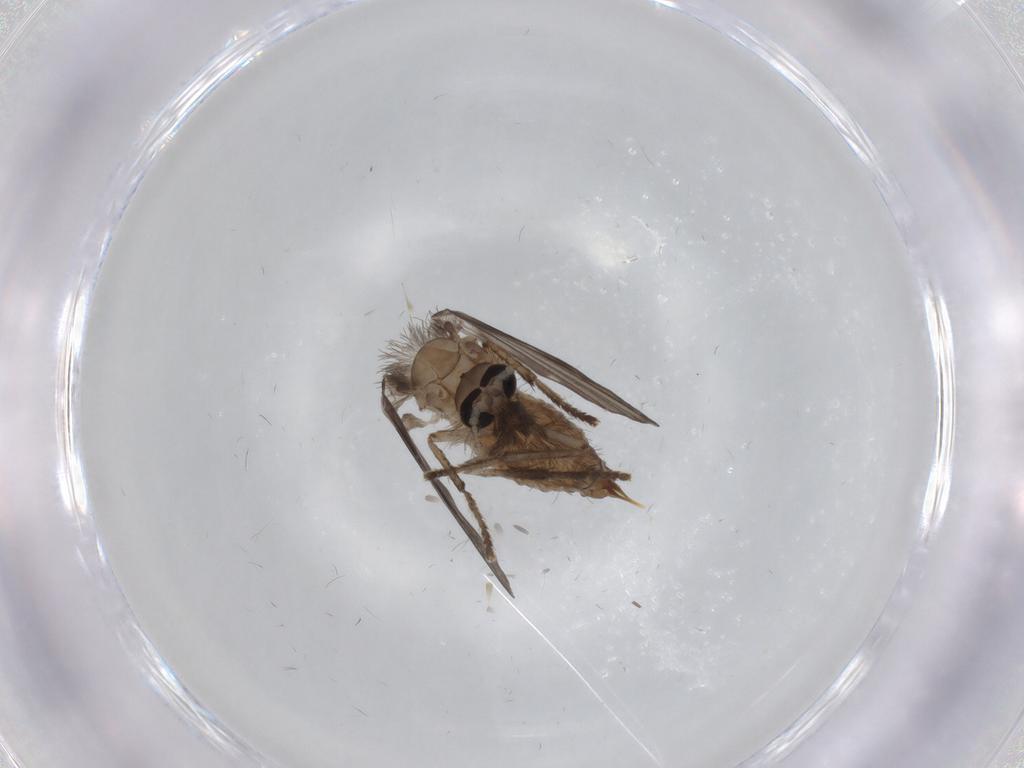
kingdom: Animalia
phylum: Arthropoda
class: Insecta
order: Diptera
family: Chironomidae
